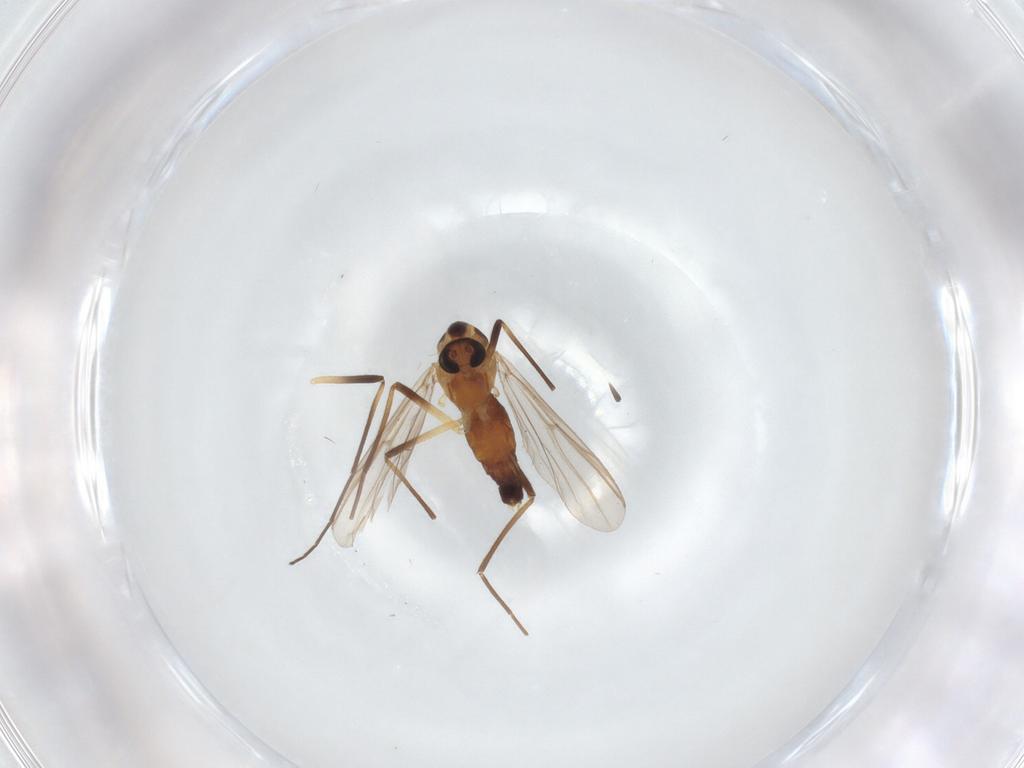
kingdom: Animalia
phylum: Arthropoda
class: Insecta
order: Diptera
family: Chironomidae
